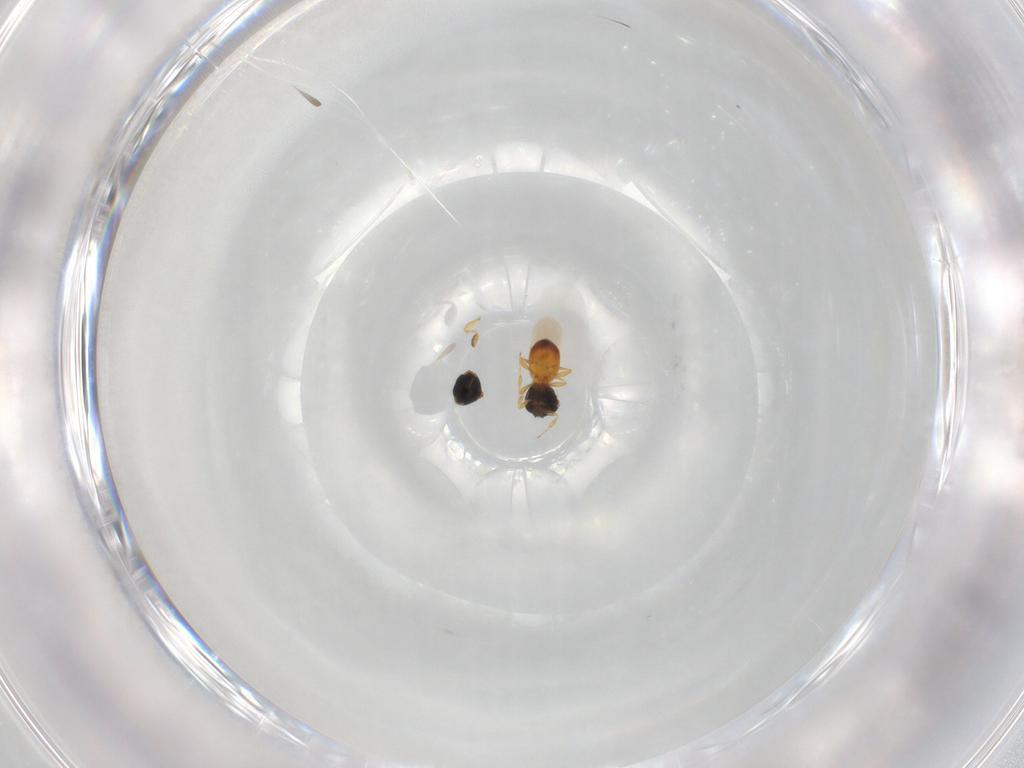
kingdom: Animalia
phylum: Arthropoda
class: Insecta
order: Hymenoptera
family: Platygastridae
